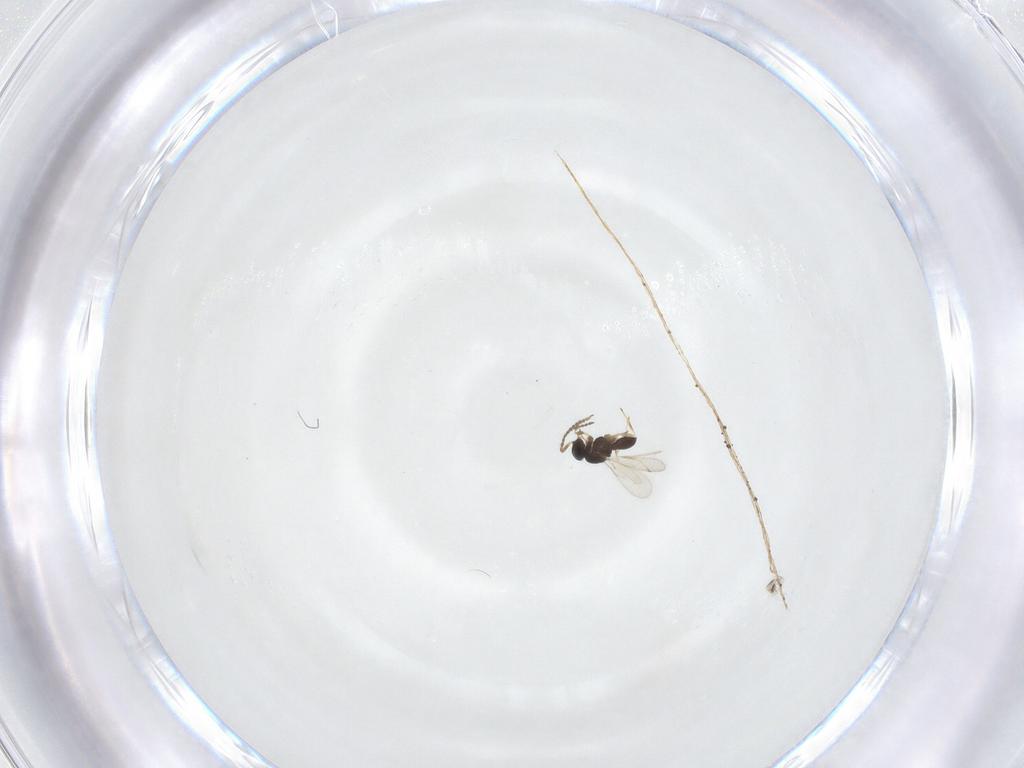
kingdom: Animalia
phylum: Arthropoda
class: Insecta
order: Hymenoptera
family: Scelionidae
